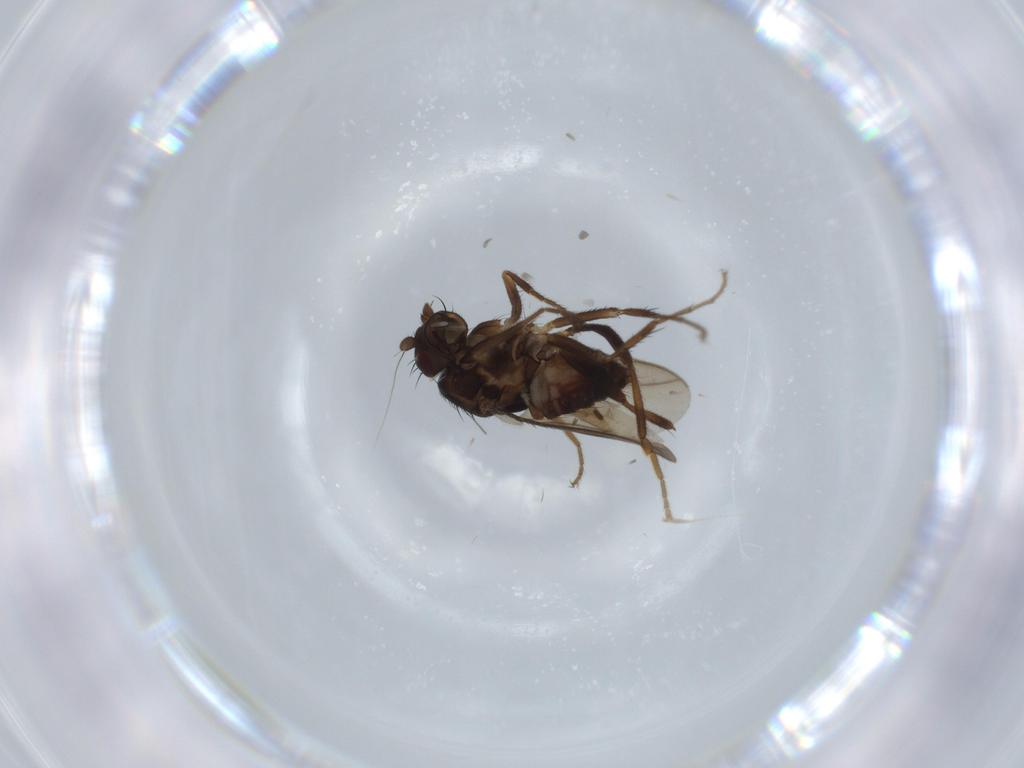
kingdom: Animalia
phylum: Arthropoda
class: Insecta
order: Diptera
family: Sphaeroceridae
